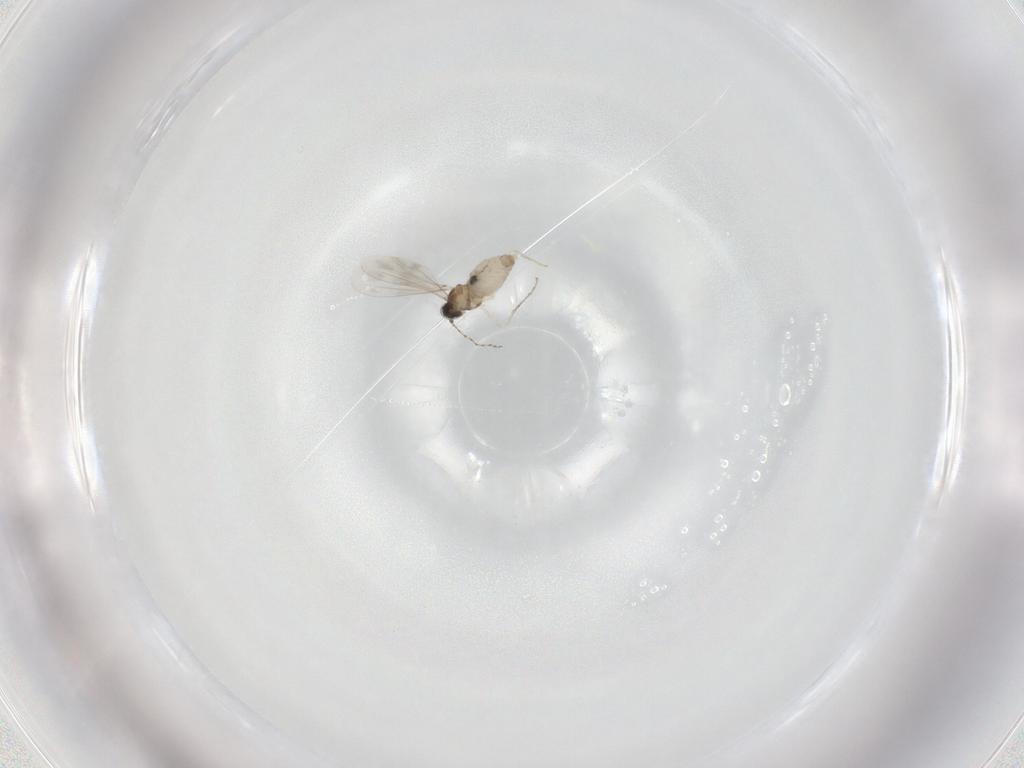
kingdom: Animalia
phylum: Arthropoda
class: Insecta
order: Diptera
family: Cecidomyiidae
